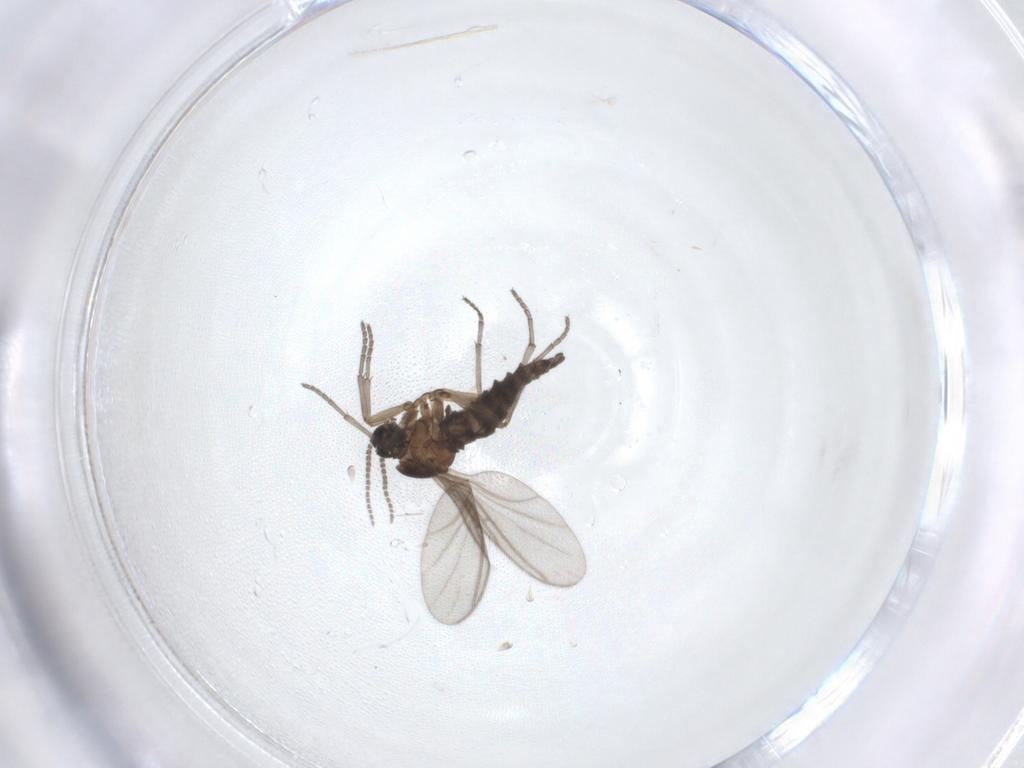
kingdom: Animalia
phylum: Arthropoda
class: Insecta
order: Diptera
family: Sciaridae
